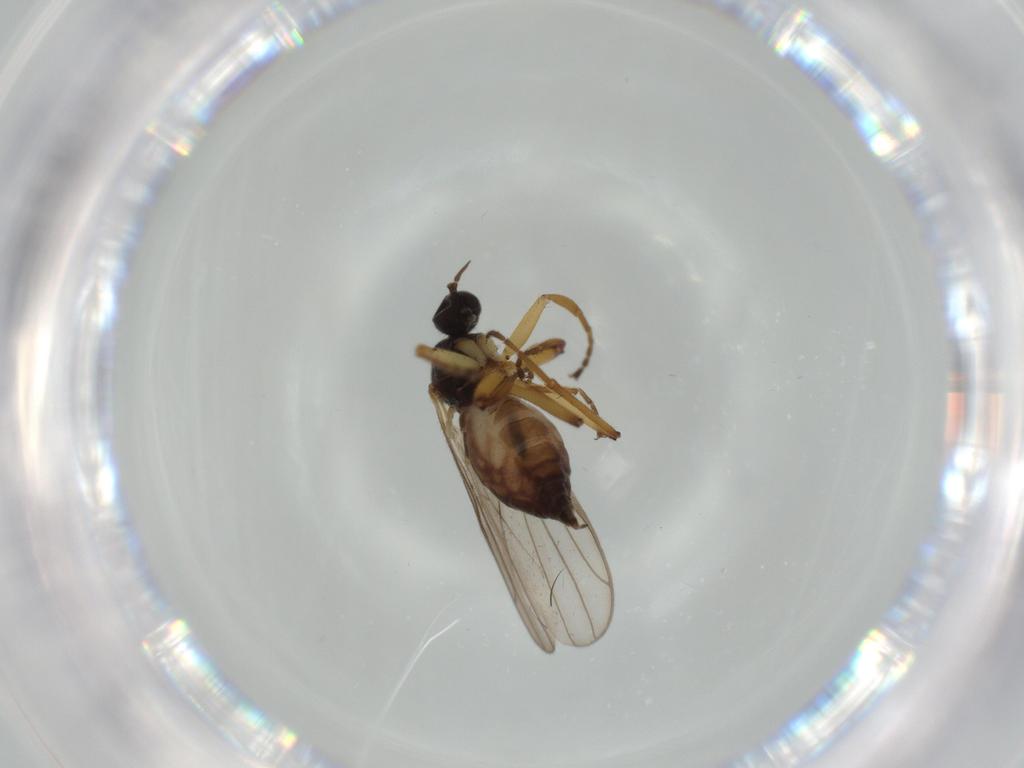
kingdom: Animalia
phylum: Arthropoda
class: Insecta
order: Diptera
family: Hybotidae
